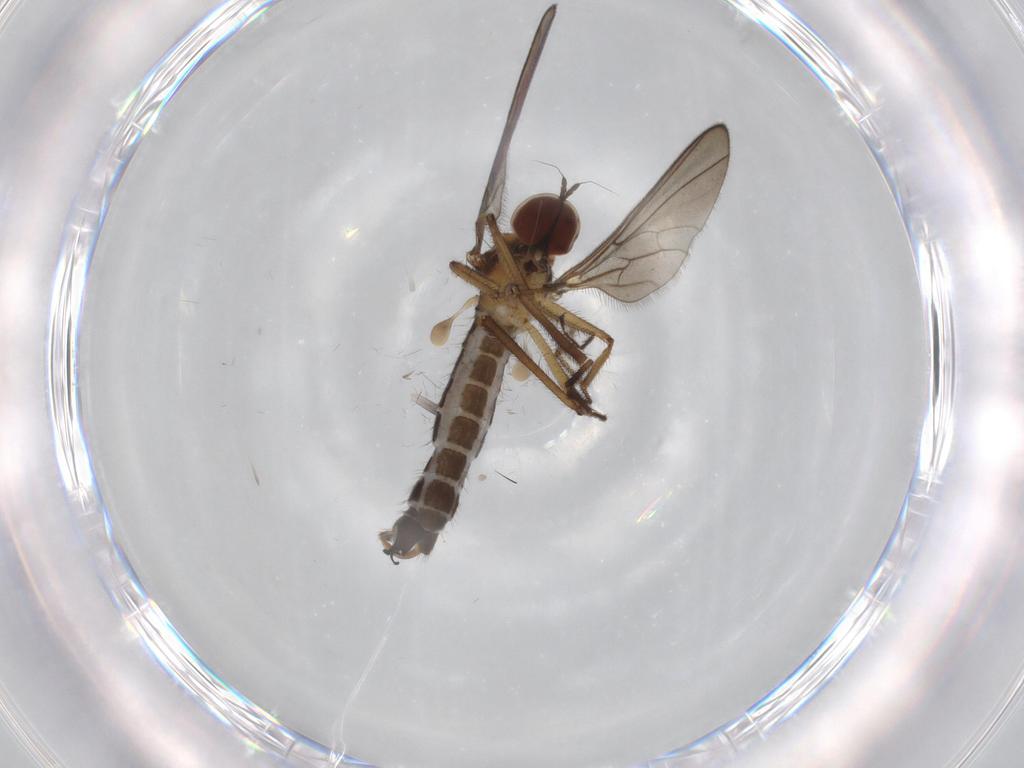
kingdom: Animalia
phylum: Arthropoda
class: Insecta
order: Diptera
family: Hybotidae
